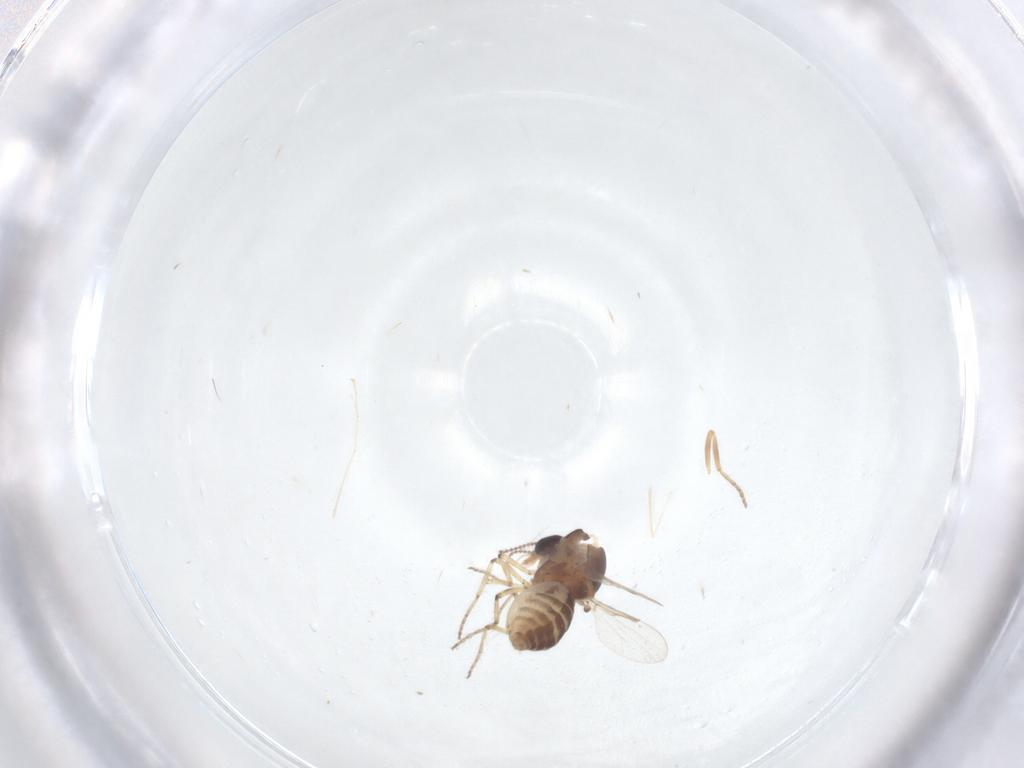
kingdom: Animalia
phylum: Arthropoda
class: Insecta
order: Diptera
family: Ceratopogonidae
